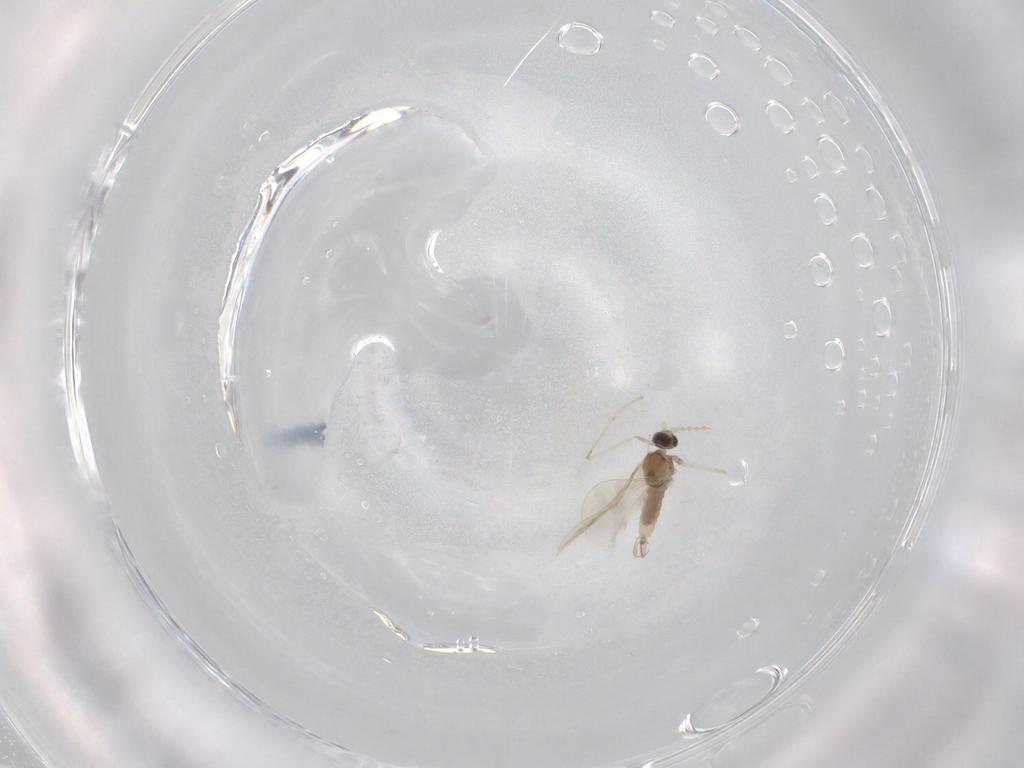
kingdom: Animalia
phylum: Arthropoda
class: Insecta
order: Diptera
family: Cecidomyiidae
